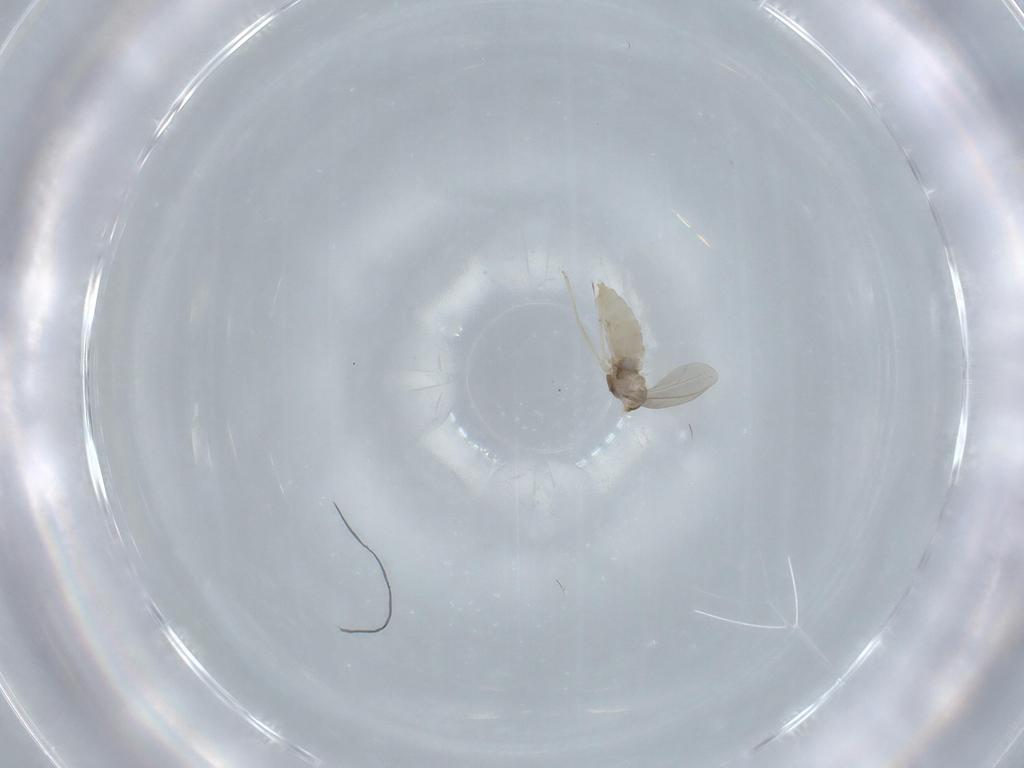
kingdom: Animalia
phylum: Arthropoda
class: Insecta
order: Diptera
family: Cecidomyiidae
